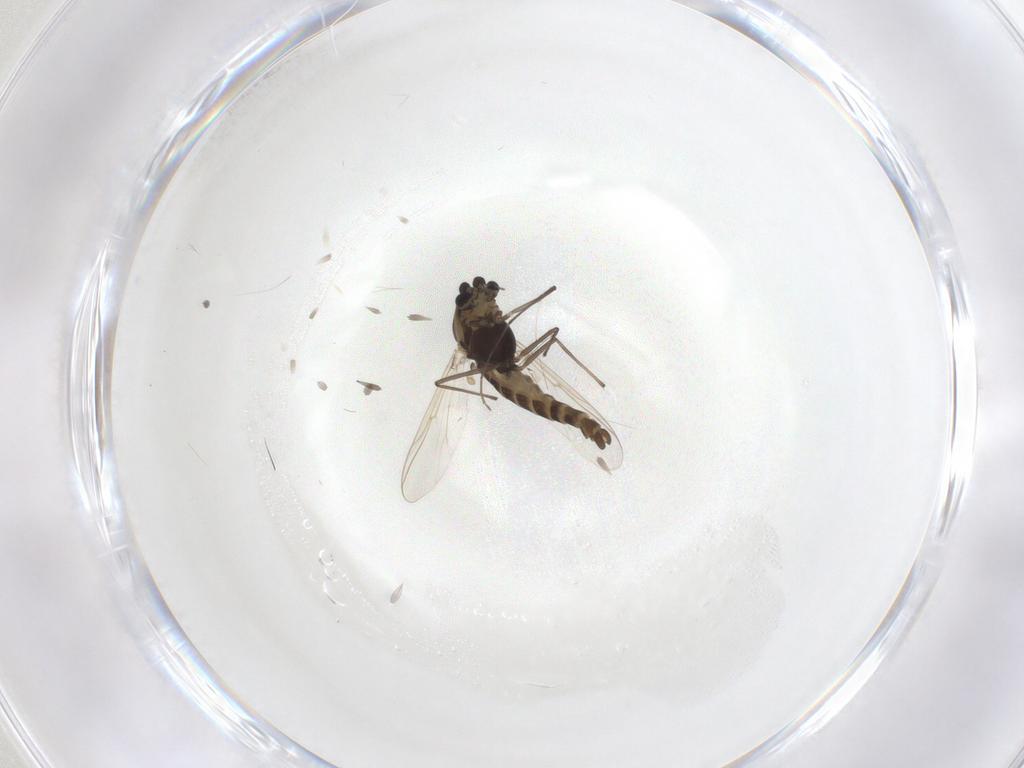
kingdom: Animalia
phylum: Arthropoda
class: Insecta
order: Diptera
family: Chironomidae
